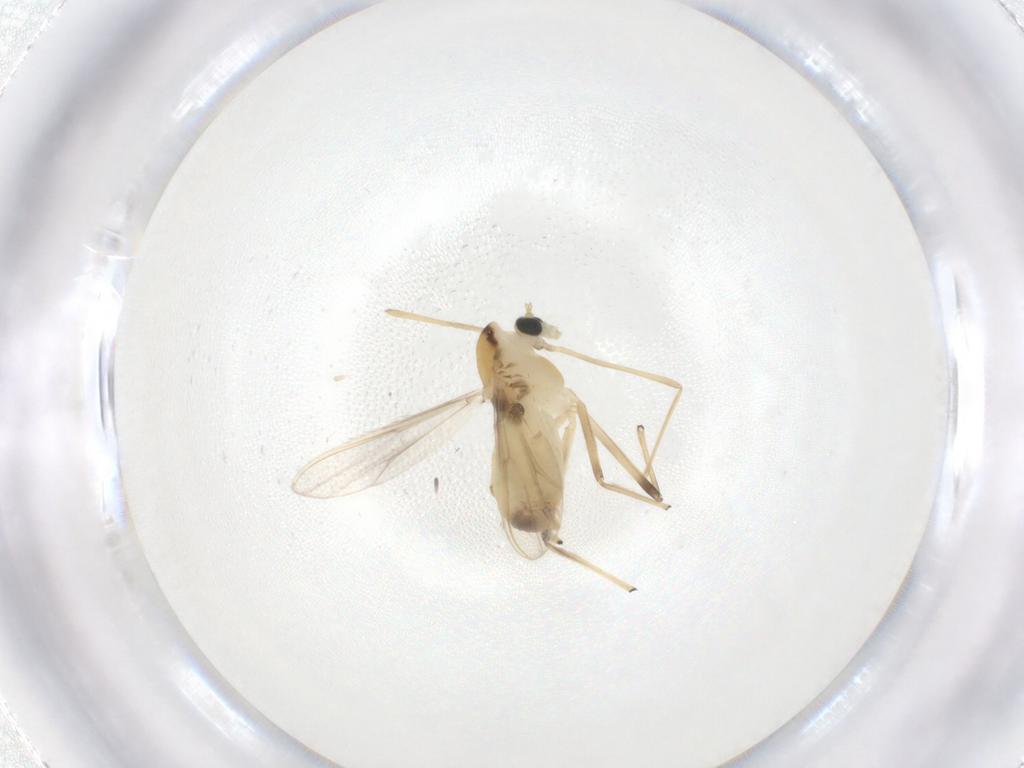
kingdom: Animalia
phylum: Arthropoda
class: Insecta
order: Diptera
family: Chironomidae
